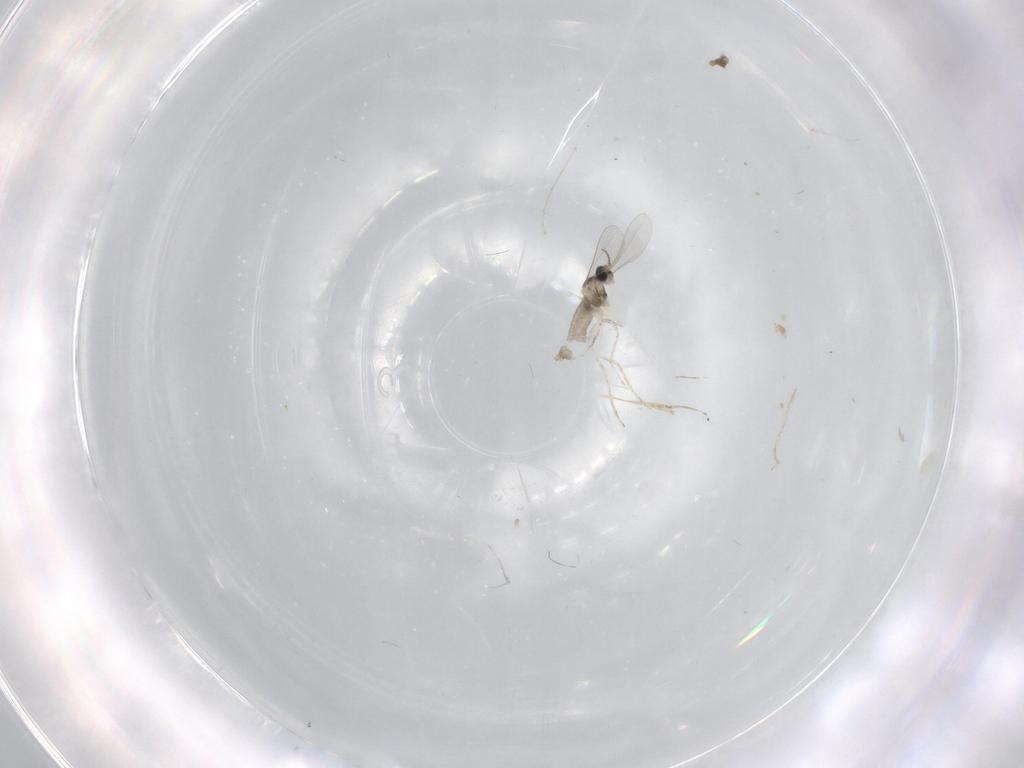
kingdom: Animalia
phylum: Arthropoda
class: Insecta
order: Diptera
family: Cecidomyiidae
